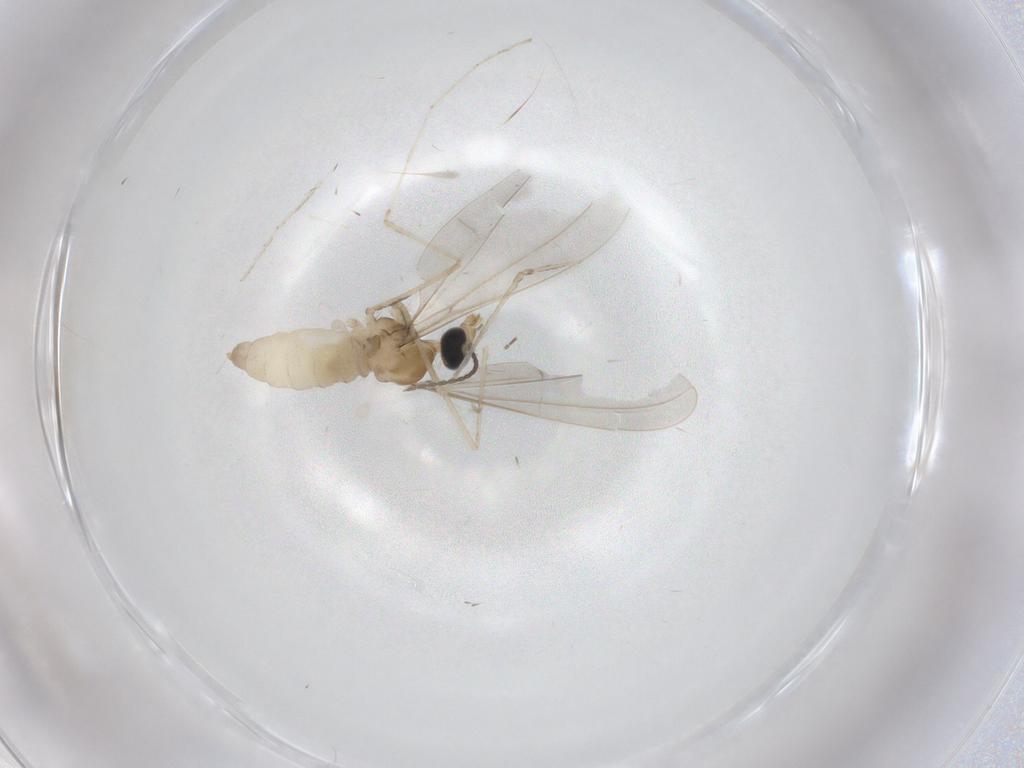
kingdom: Animalia
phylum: Arthropoda
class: Insecta
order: Diptera
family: Cecidomyiidae
